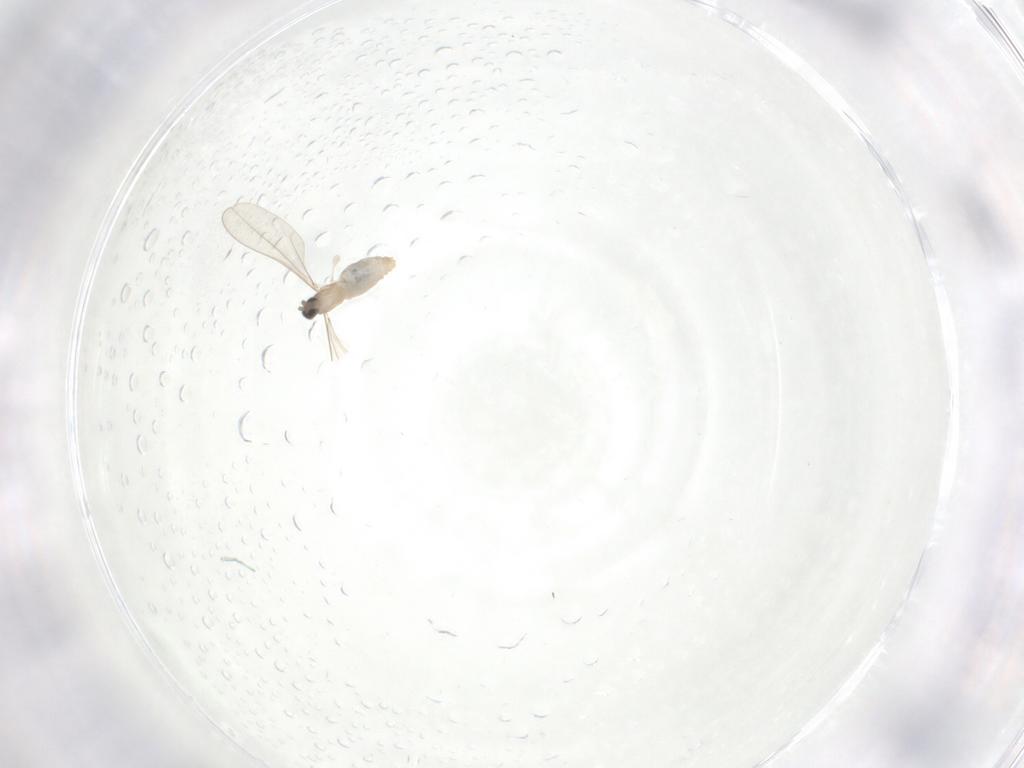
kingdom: Animalia
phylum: Arthropoda
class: Insecta
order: Diptera
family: Cecidomyiidae
